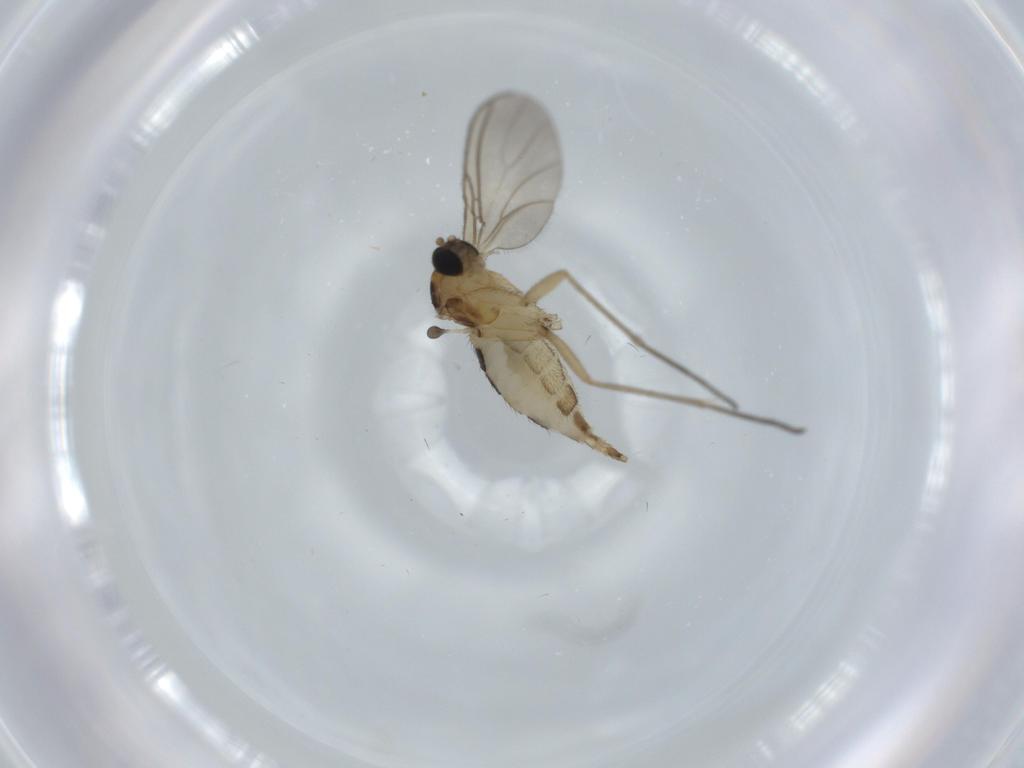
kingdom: Animalia
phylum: Arthropoda
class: Insecta
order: Diptera
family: Sciaridae
